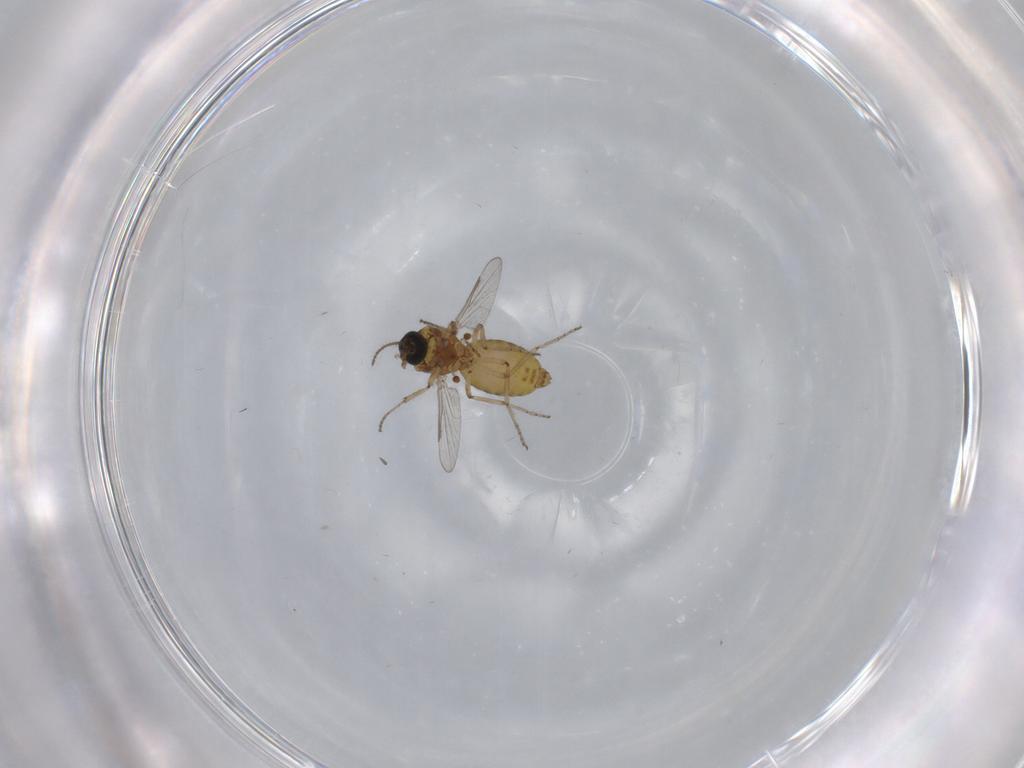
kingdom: Animalia
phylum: Arthropoda
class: Insecta
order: Diptera
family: Ceratopogonidae
